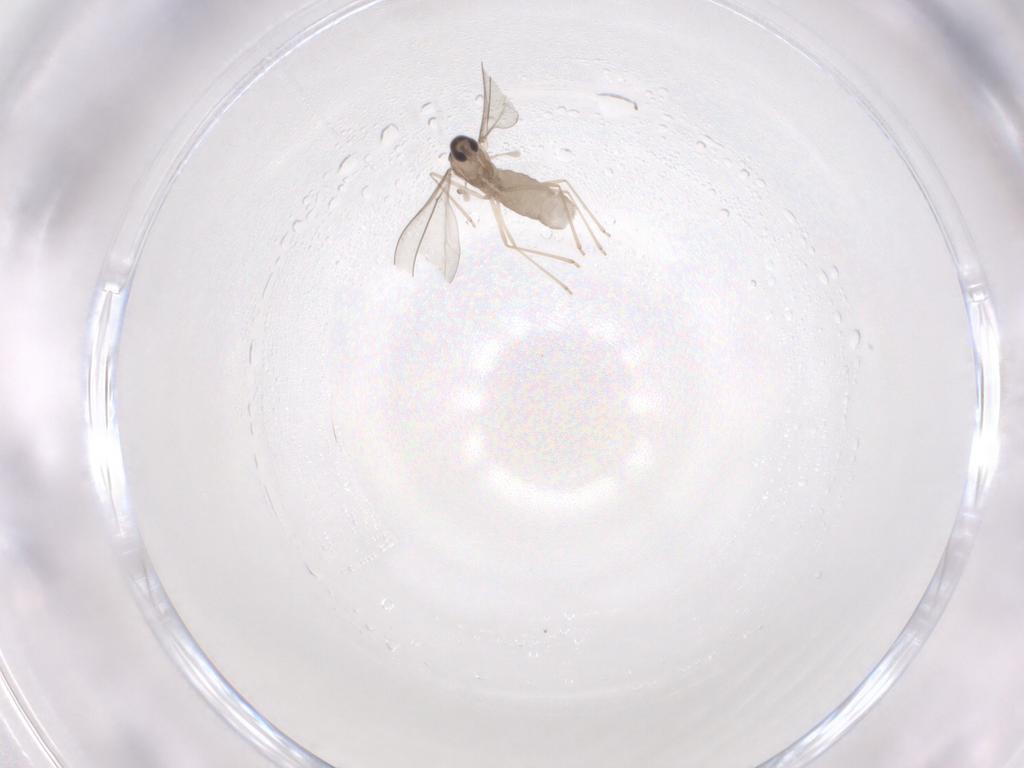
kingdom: Animalia
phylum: Arthropoda
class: Insecta
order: Diptera
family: Cecidomyiidae
